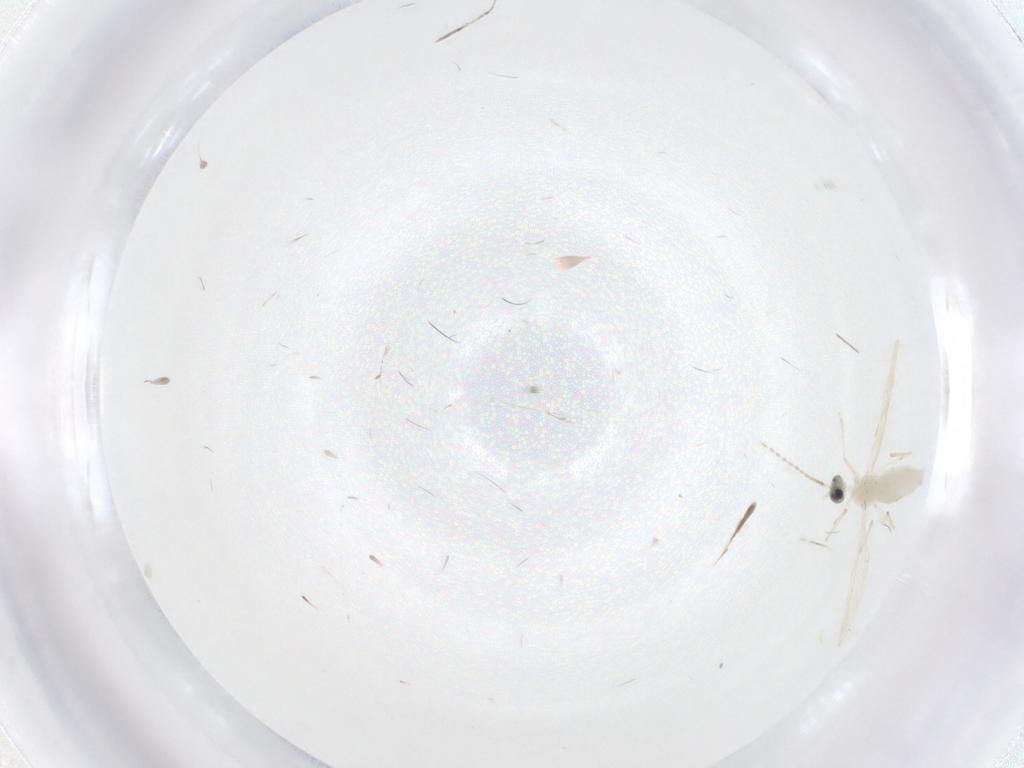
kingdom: Animalia
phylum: Arthropoda
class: Insecta
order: Diptera
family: Cecidomyiidae
